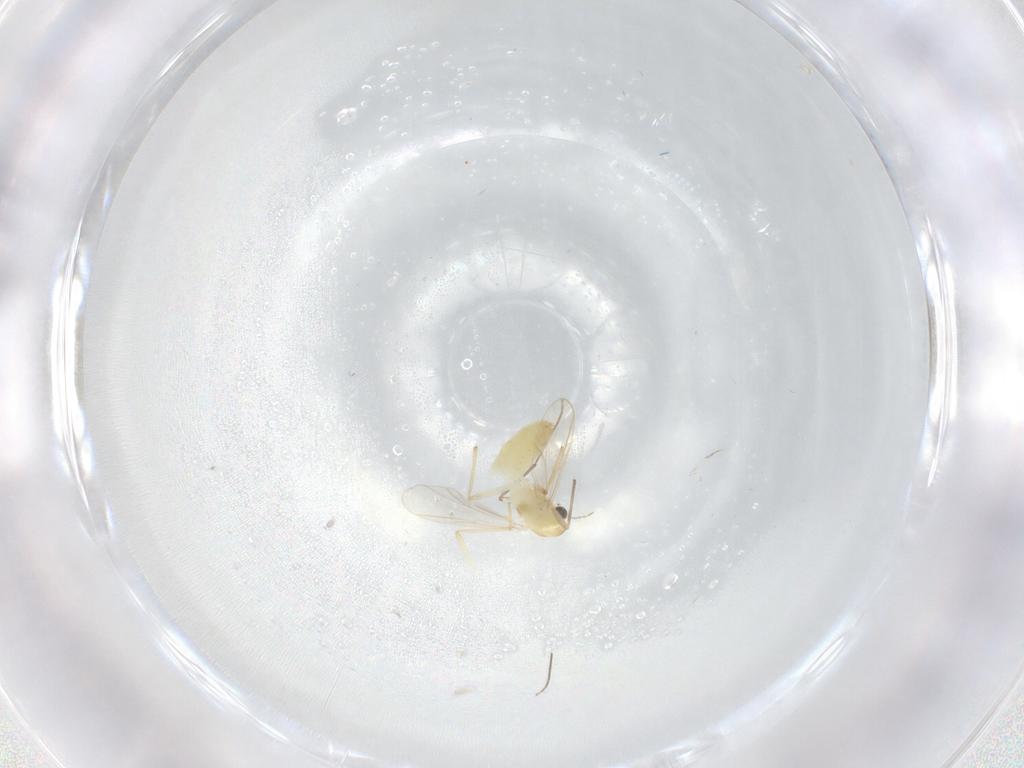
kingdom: Animalia
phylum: Arthropoda
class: Insecta
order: Diptera
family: Chironomidae
